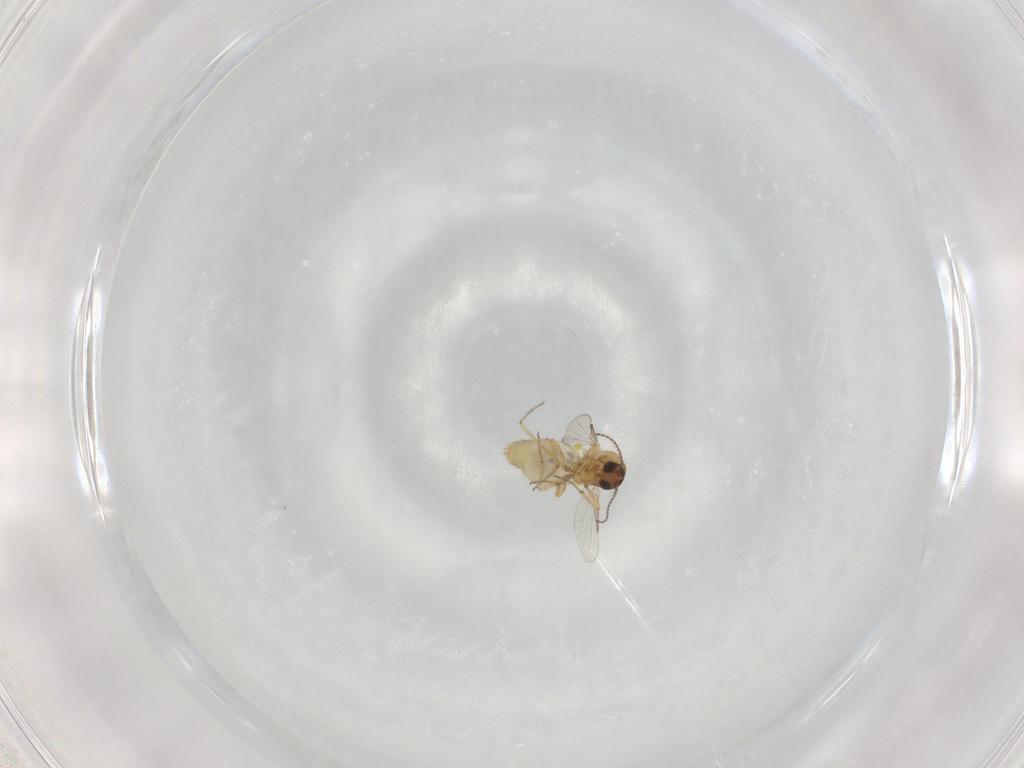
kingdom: Animalia
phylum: Arthropoda
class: Insecta
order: Diptera
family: Ceratopogonidae
